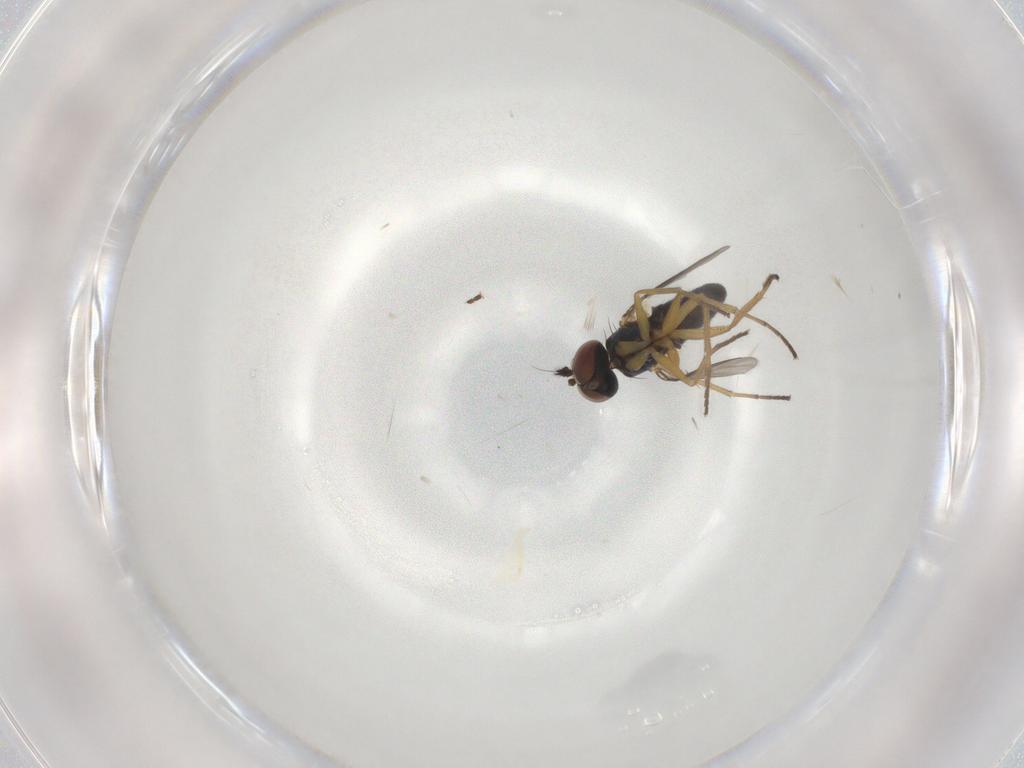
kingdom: Animalia
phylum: Arthropoda
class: Insecta
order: Diptera
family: Dolichopodidae
